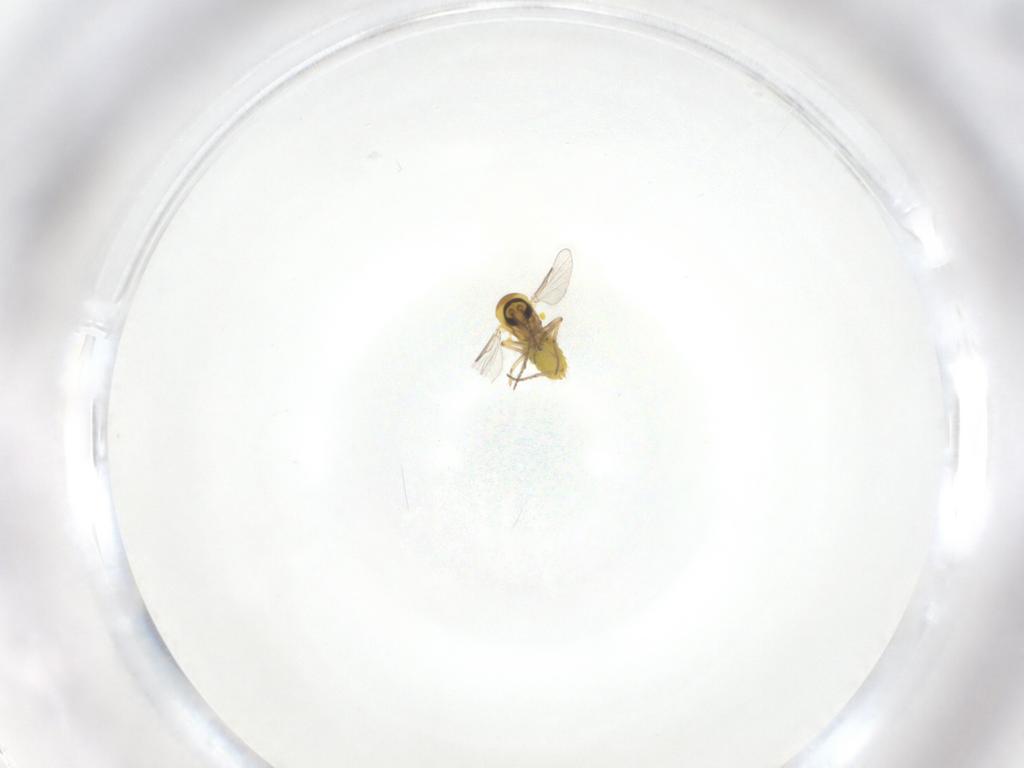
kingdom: Animalia
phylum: Arthropoda
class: Insecta
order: Diptera
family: Ceratopogonidae
